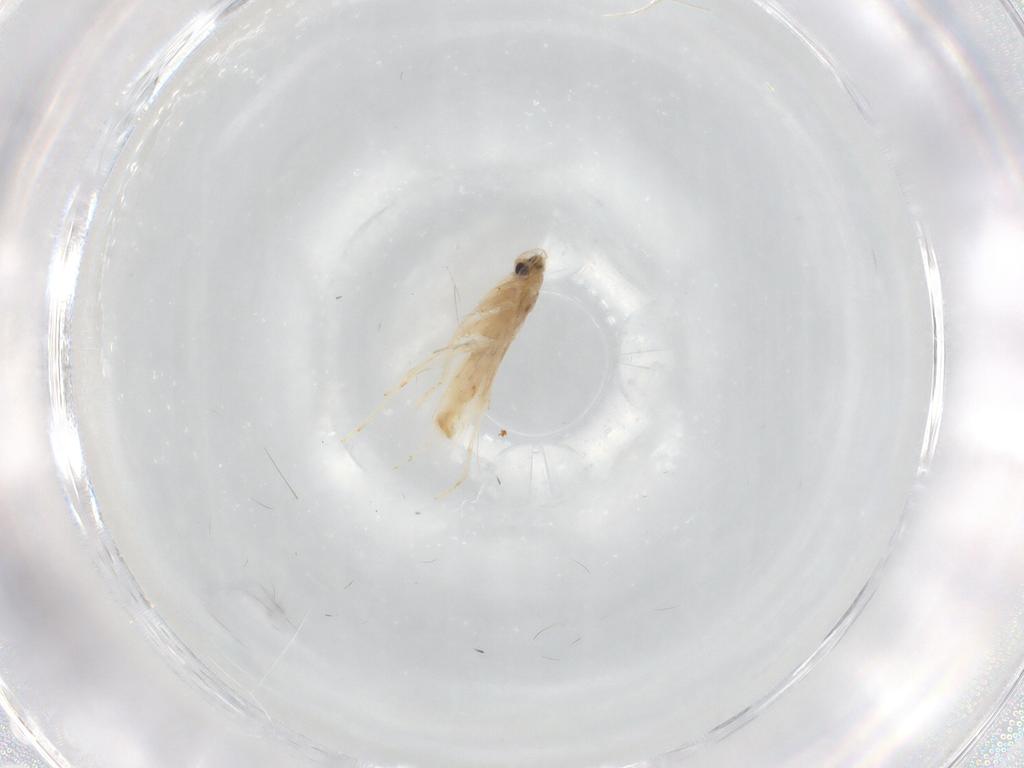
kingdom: Animalia
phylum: Arthropoda
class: Insecta
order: Lepidoptera
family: Gracillariidae
